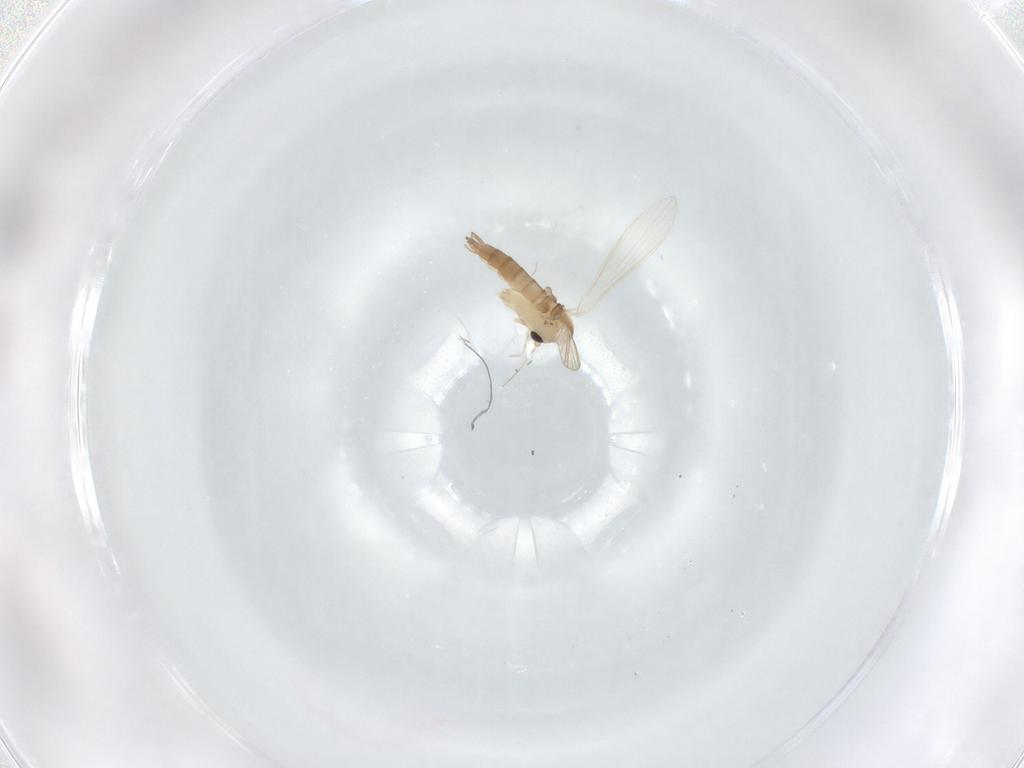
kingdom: Animalia
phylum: Arthropoda
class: Insecta
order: Diptera
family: Psychodidae
